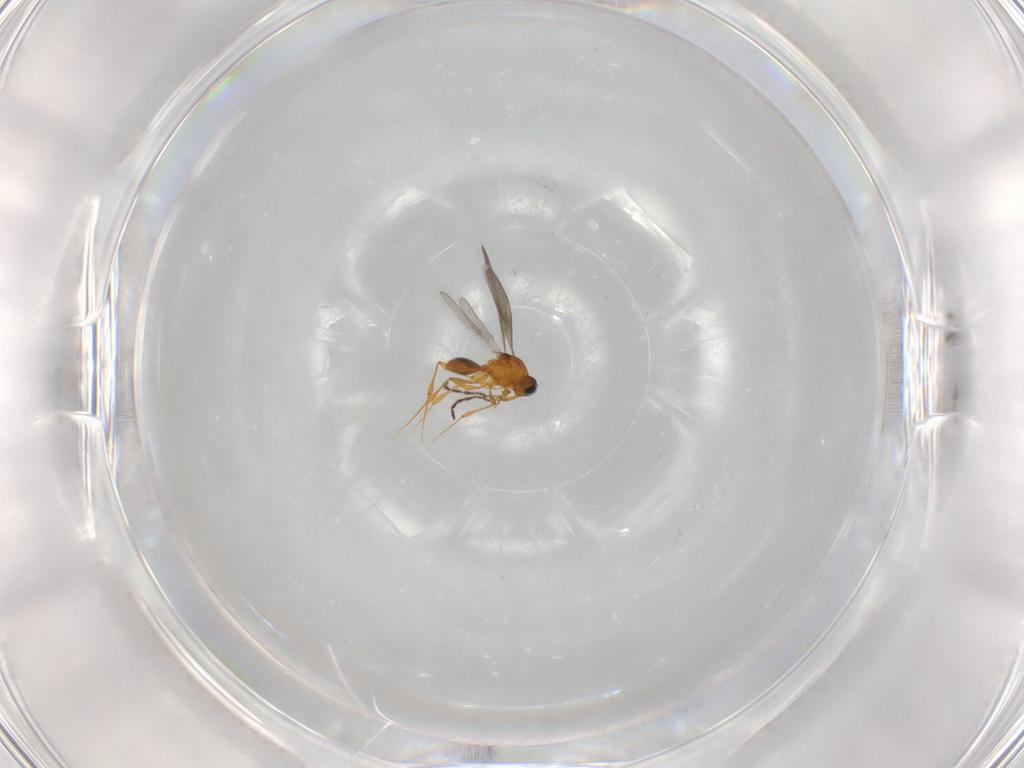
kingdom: Animalia
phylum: Arthropoda
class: Insecta
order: Hymenoptera
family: Platygastridae
